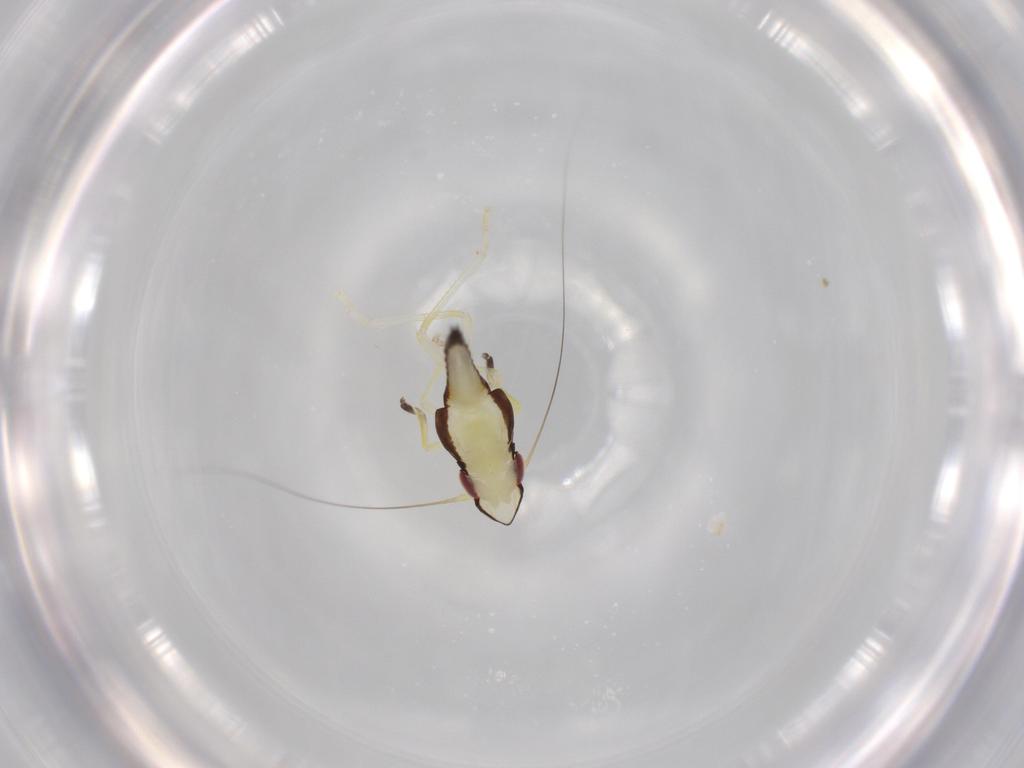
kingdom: Animalia
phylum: Arthropoda
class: Insecta
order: Hemiptera
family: Cicadellidae
